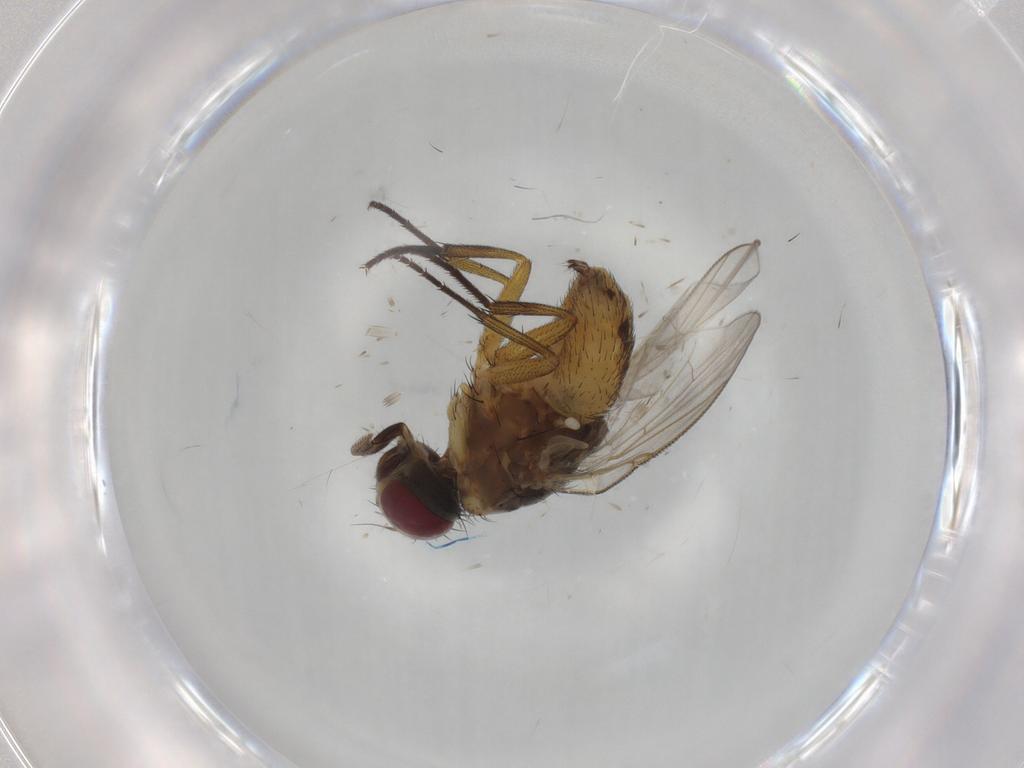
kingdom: Animalia
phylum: Arthropoda
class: Insecta
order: Diptera
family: Muscidae
